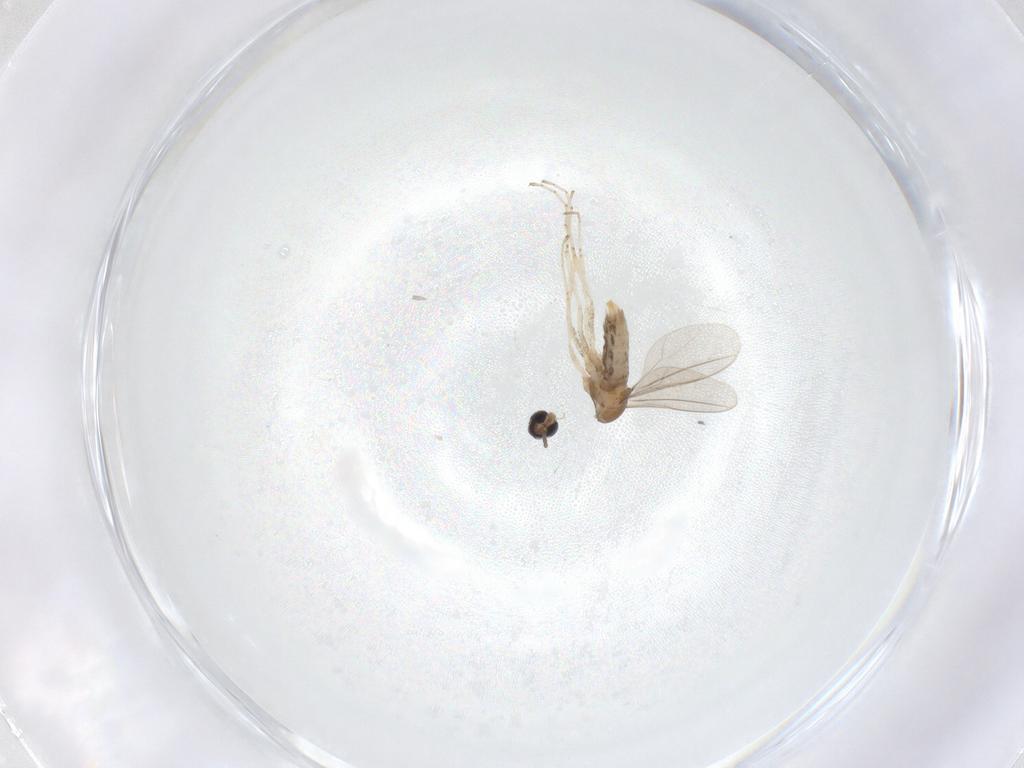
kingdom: Animalia
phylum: Arthropoda
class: Insecta
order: Diptera
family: Cecidomyiidae
